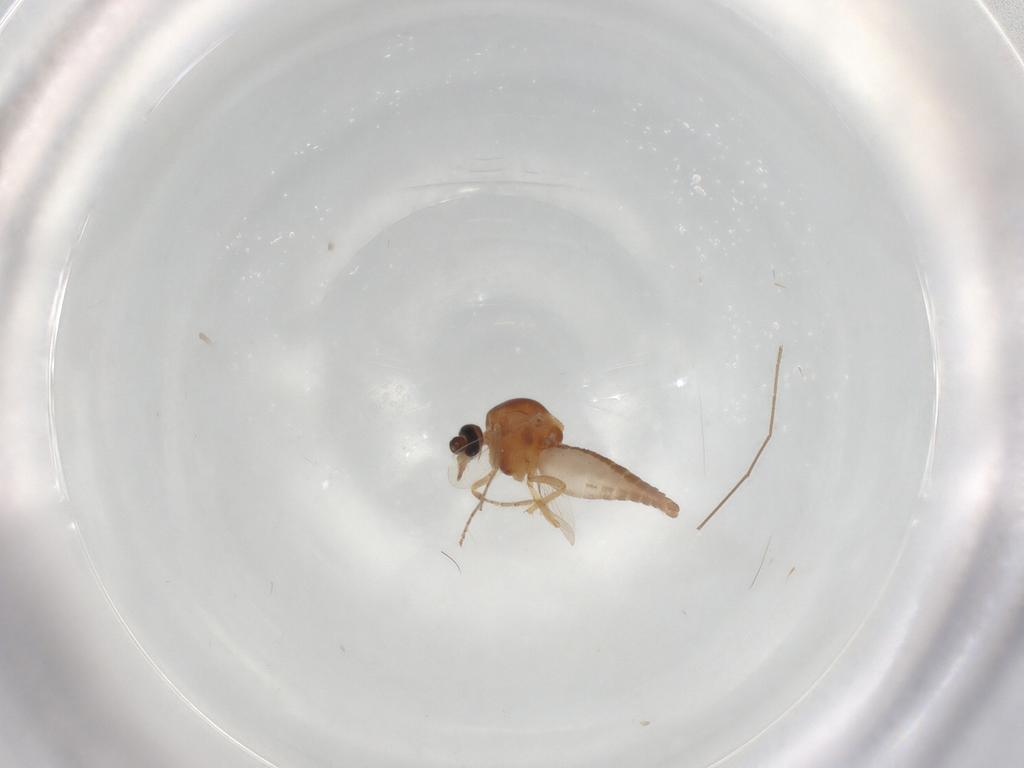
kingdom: Animalia
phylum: Arthropoda
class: Insecta
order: Diptera
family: Ceratopogonidae
